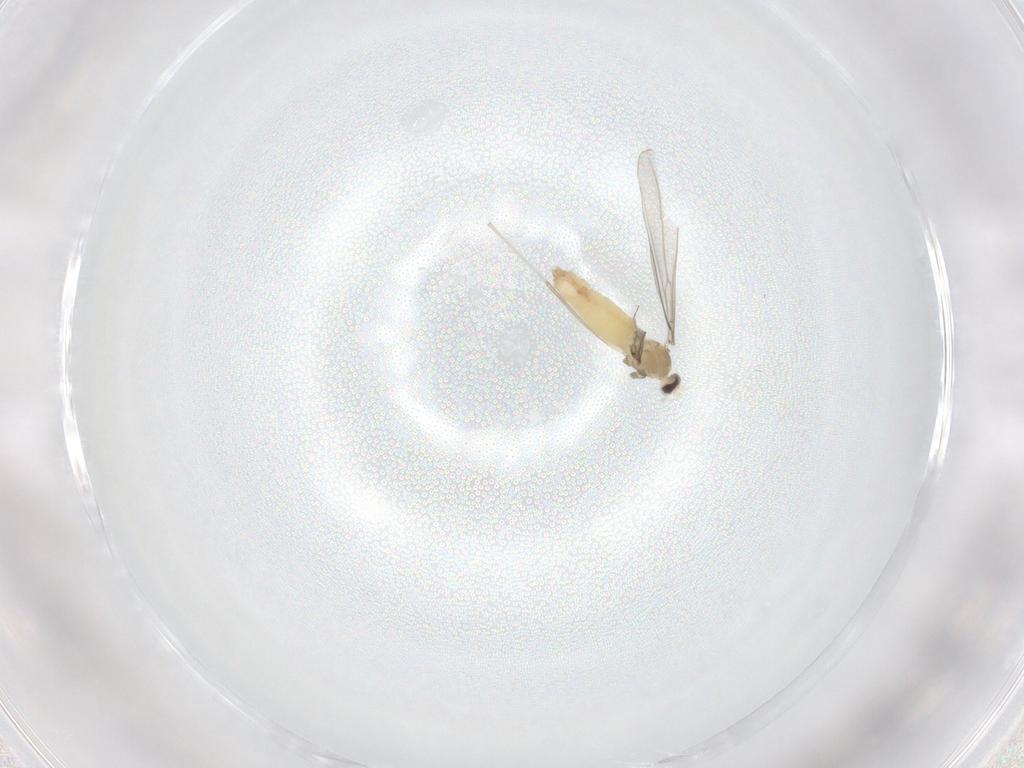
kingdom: Animalia
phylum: Arthropoda
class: Insecta
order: Diptera
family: Cecidomyiidae
